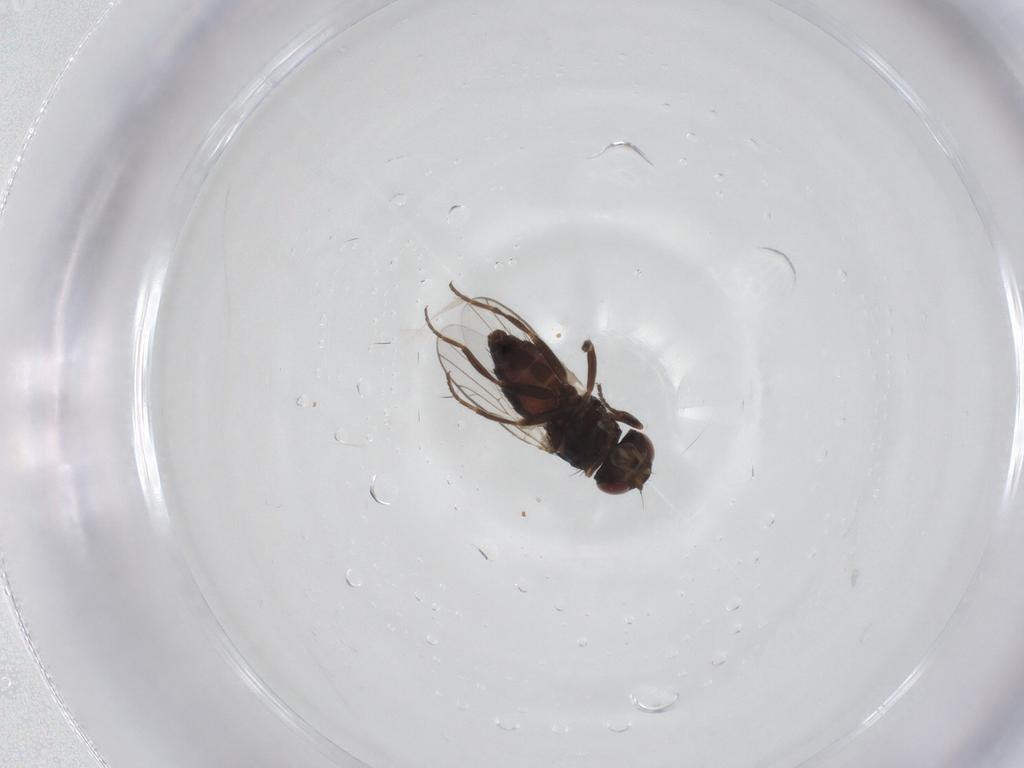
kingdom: Animalia
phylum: Arthropoda
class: Insecta
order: Diptera
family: Chloropidae
